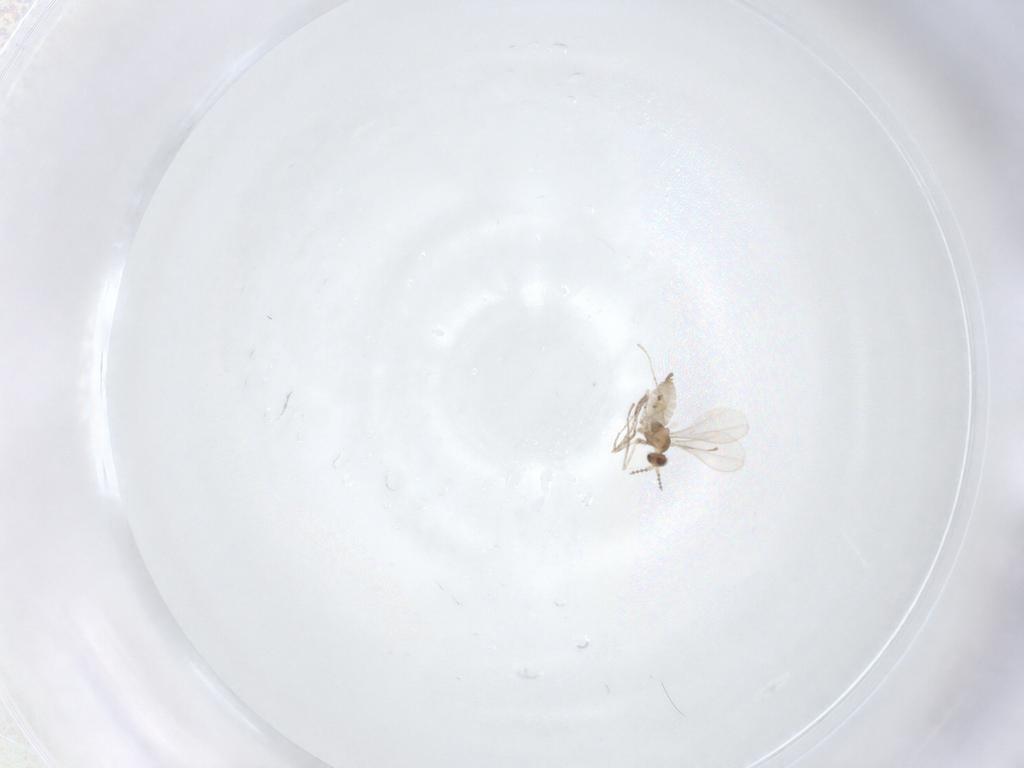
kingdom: Animalia
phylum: Arthropoda
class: Insecta
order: Diptera
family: Cecidomyiidae
